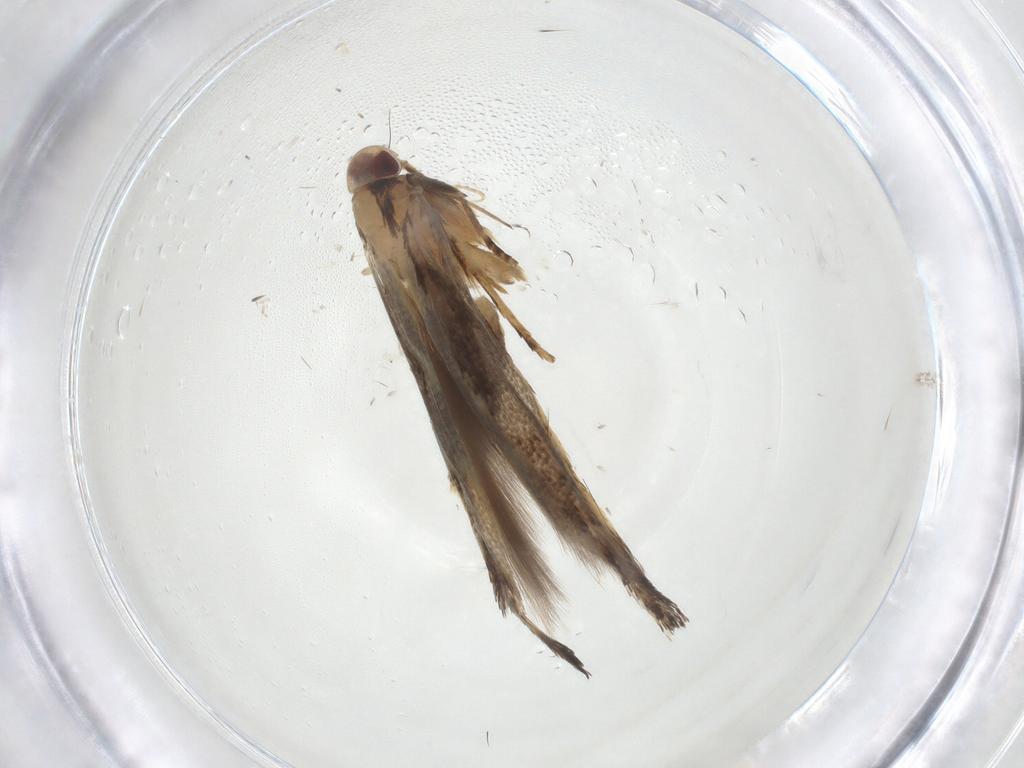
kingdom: Animalia
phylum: Arthropoda
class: Insecta
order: Lepidoptera
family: Cosmopterigidae
